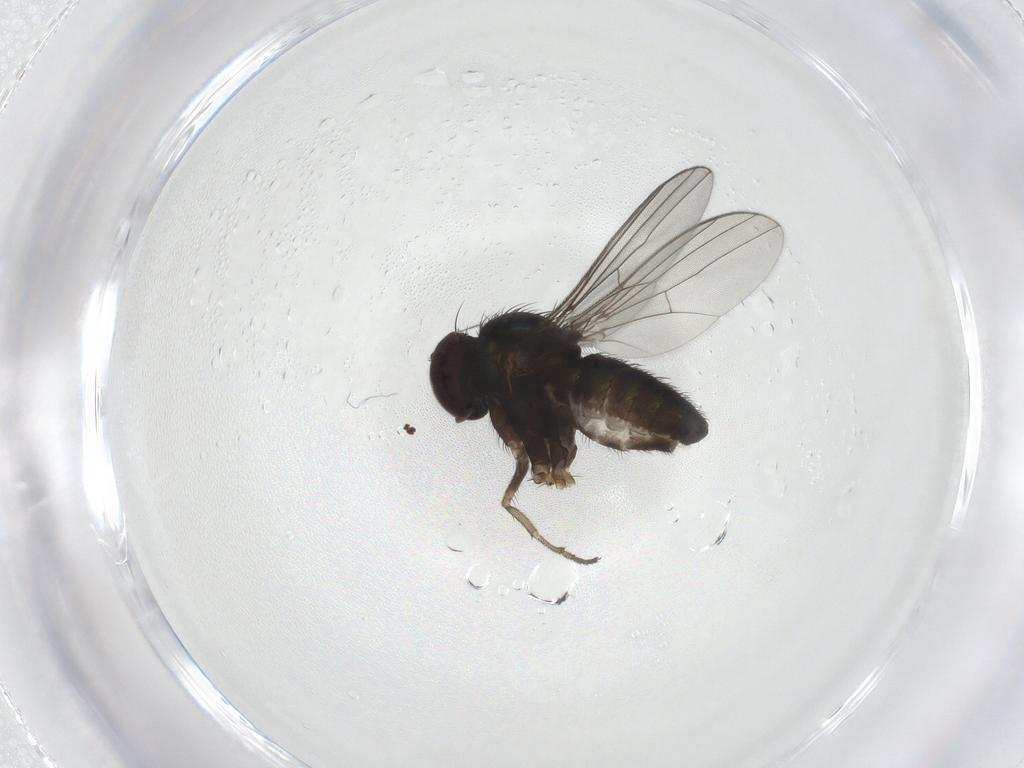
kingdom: Animalia
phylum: Arthropoda
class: Insecta
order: Diptera
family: Dolichopodidae
